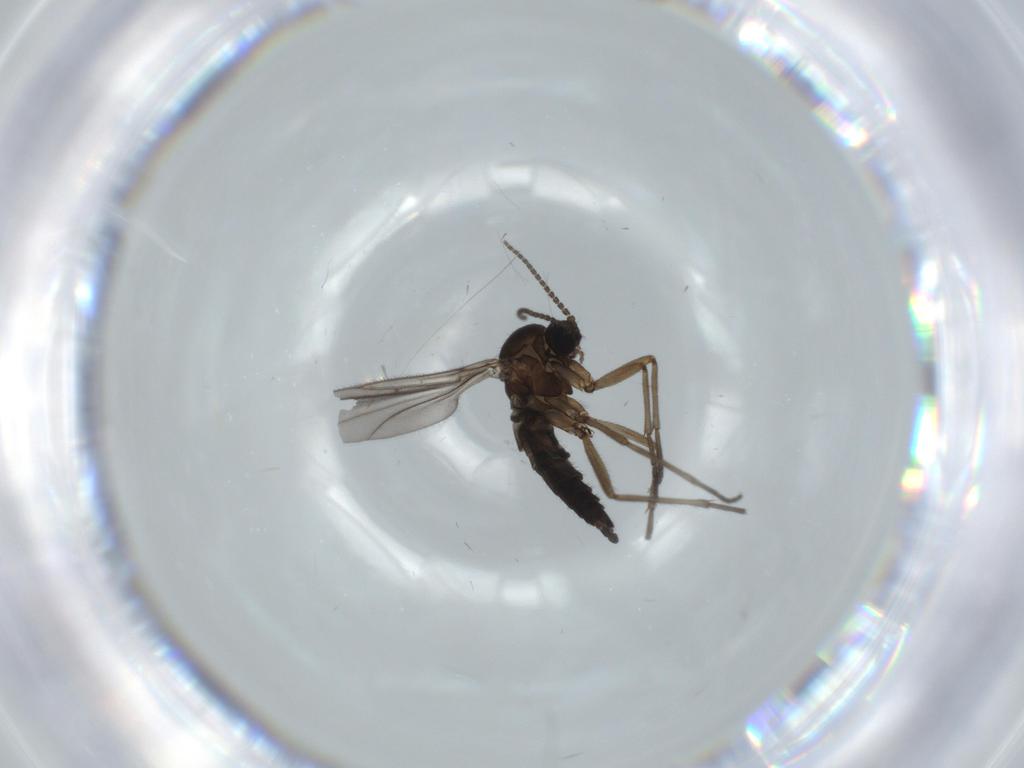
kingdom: Animalia
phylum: Arthropoda
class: Insecta
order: Diptera
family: Sciaridae
